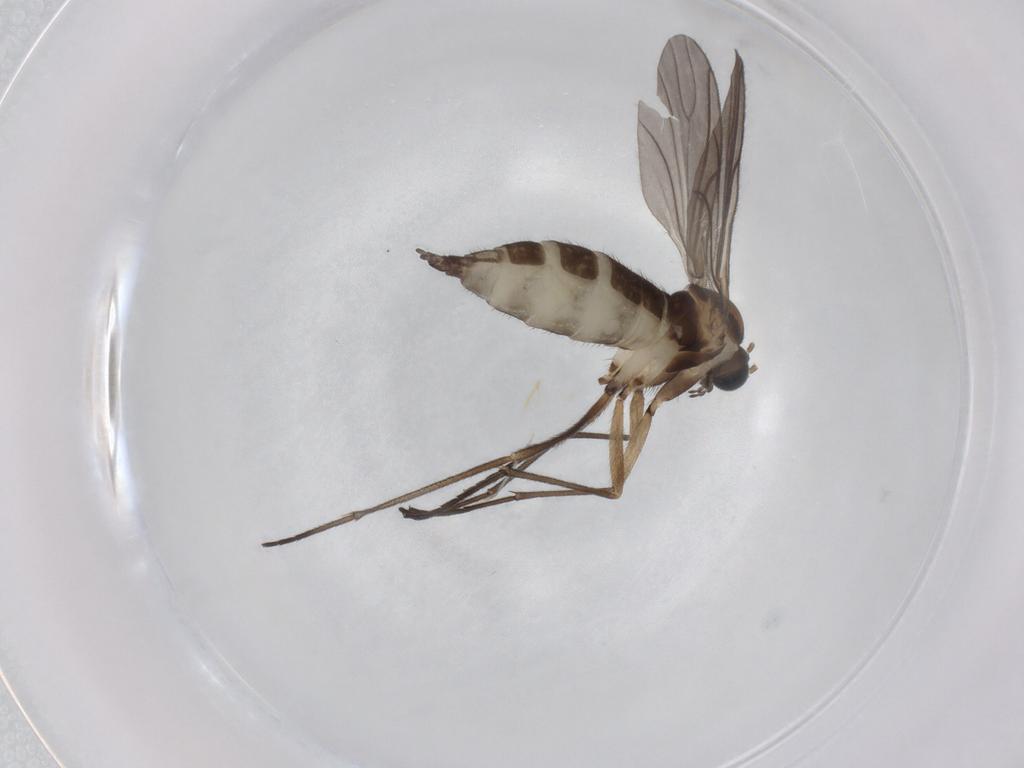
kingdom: Animalia
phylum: Arthropoda
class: Insecta
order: Diptera
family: Sciaridae
